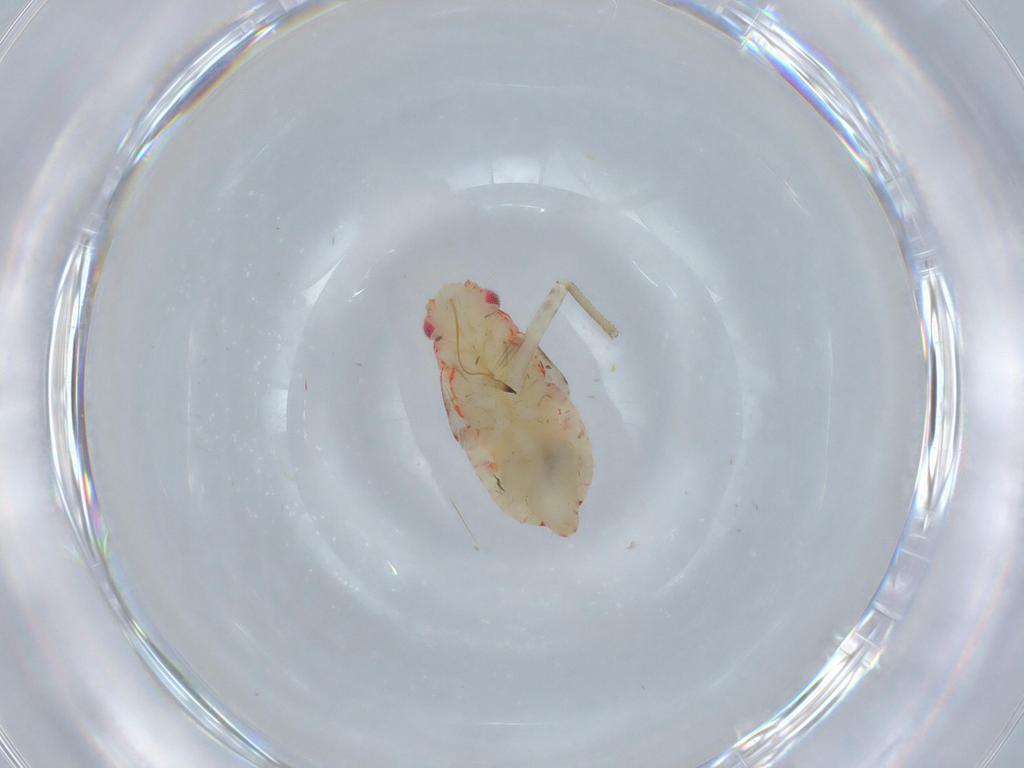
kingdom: Animalia
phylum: Arthropoda
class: Insecta
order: Hemiptera
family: Miridae
